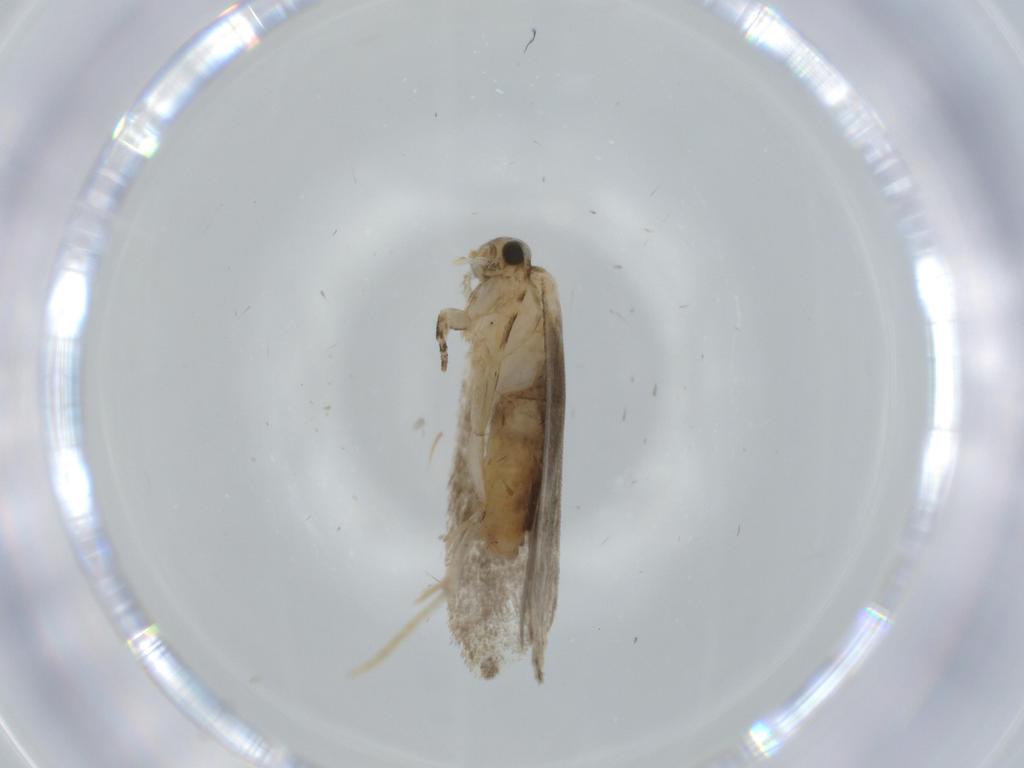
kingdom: Animalia
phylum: Arthropoda
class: Insecta
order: Lepidoptera
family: Tineidae
